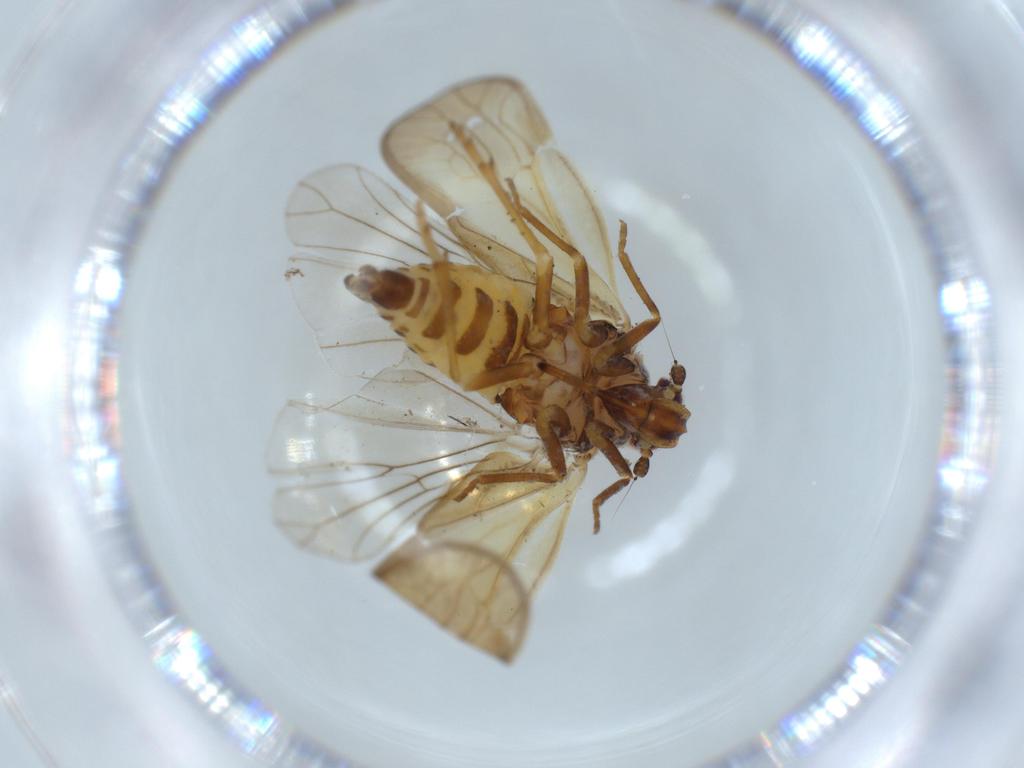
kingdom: Animalia
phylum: Arthropoda
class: Insecta
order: Hemiptera
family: Meenoplidae
